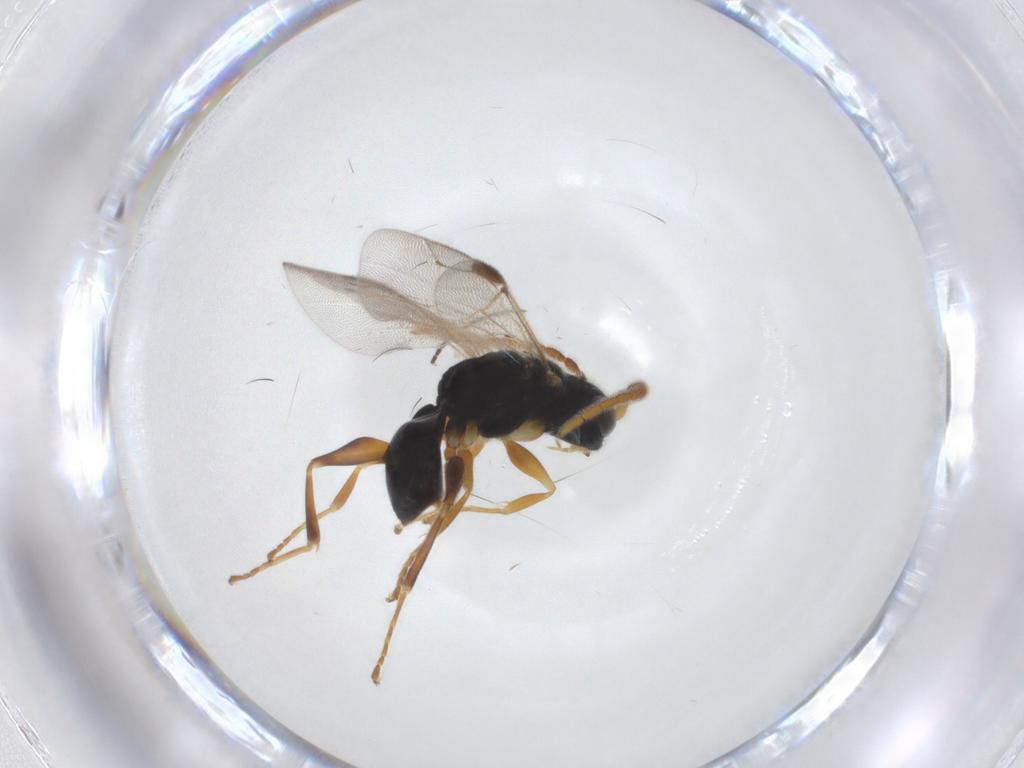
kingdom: Animalia
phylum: Arthropoda
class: Insecta
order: Hymenoptera
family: Dryinidae
